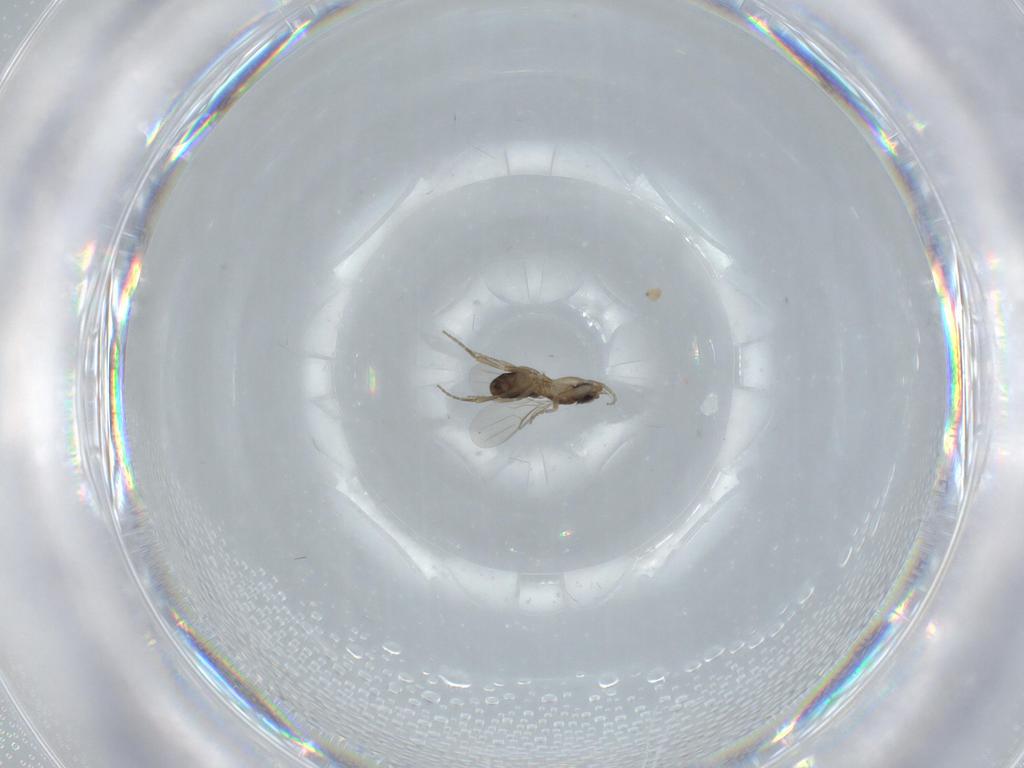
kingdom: Animalia
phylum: Arthropoda
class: Insecta
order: Diptera
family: Phoridae
